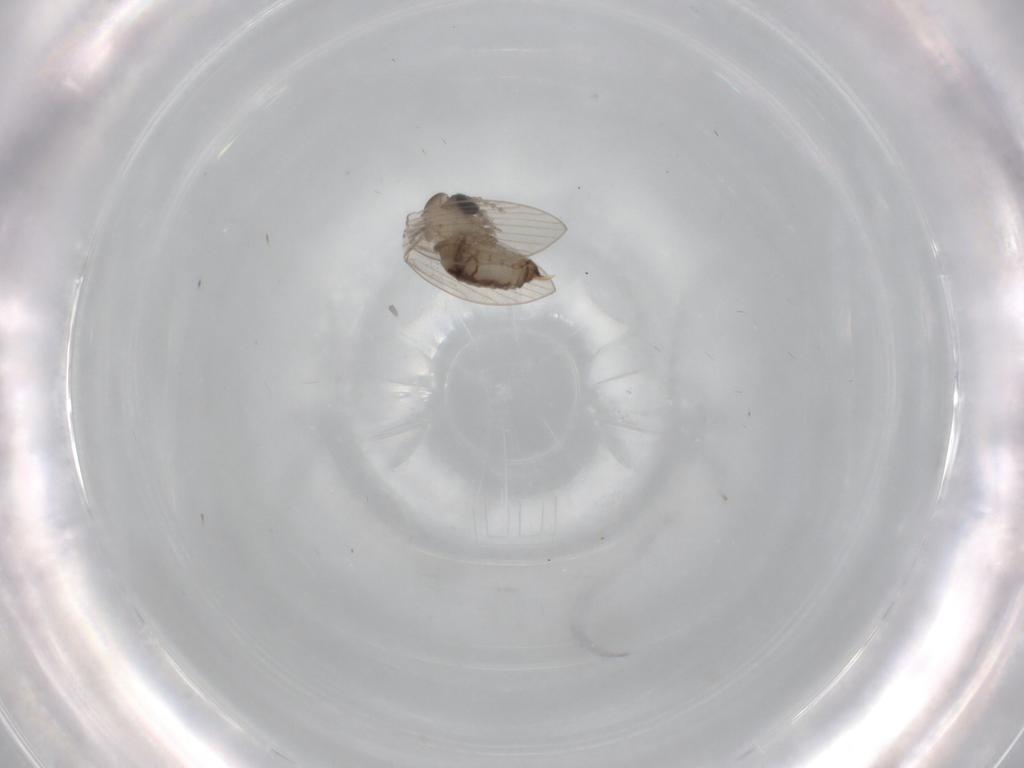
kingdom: Animalia
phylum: Arthropoda
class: Insecta
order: Diptera
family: Psychodidae
